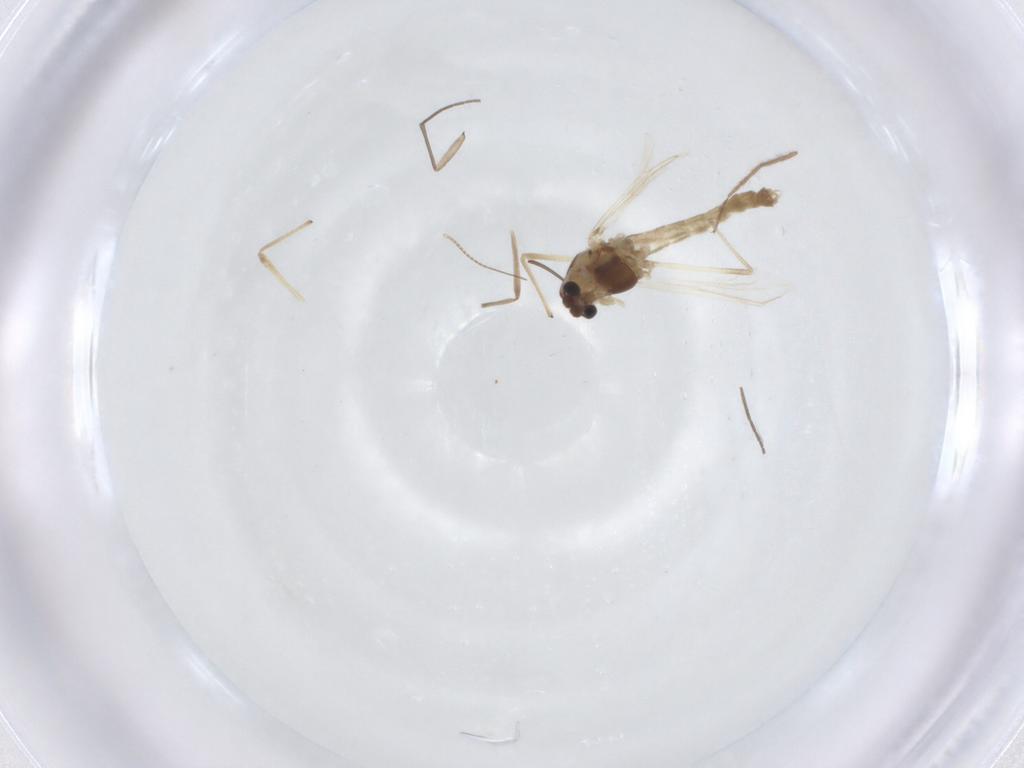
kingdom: Animalia
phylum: Arthropoda
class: Insecta
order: Diptera
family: Chironomidae
